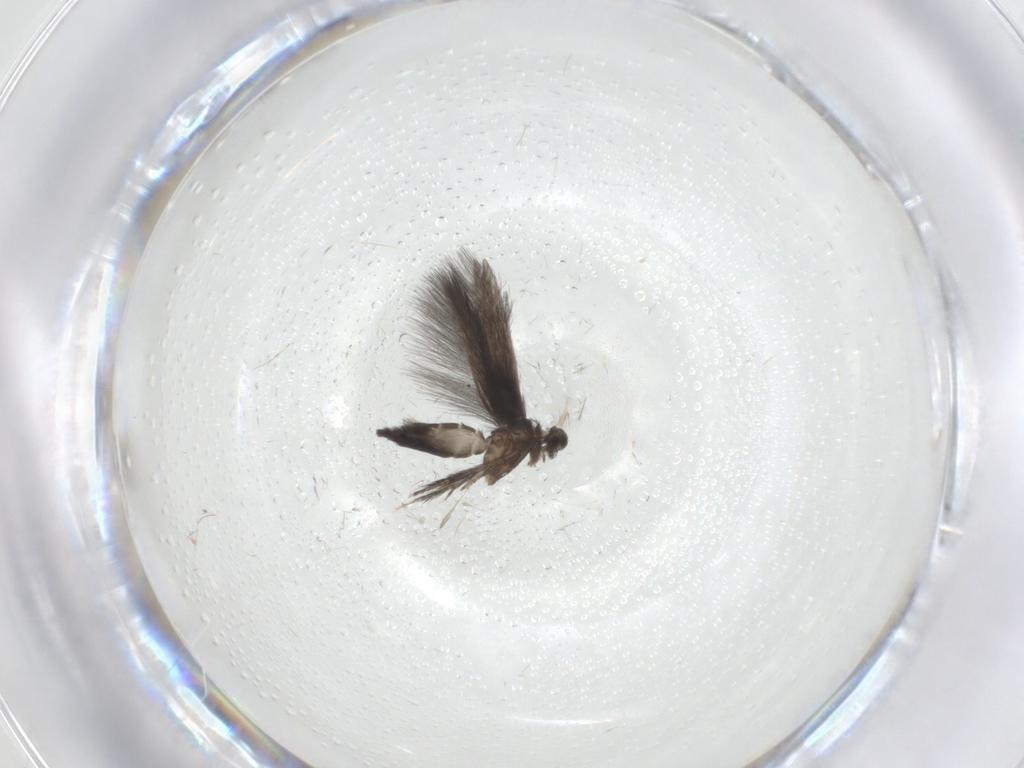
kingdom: Animalia
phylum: Arthropoda
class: Insecta
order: Trichoptera
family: Hydroptilidae
